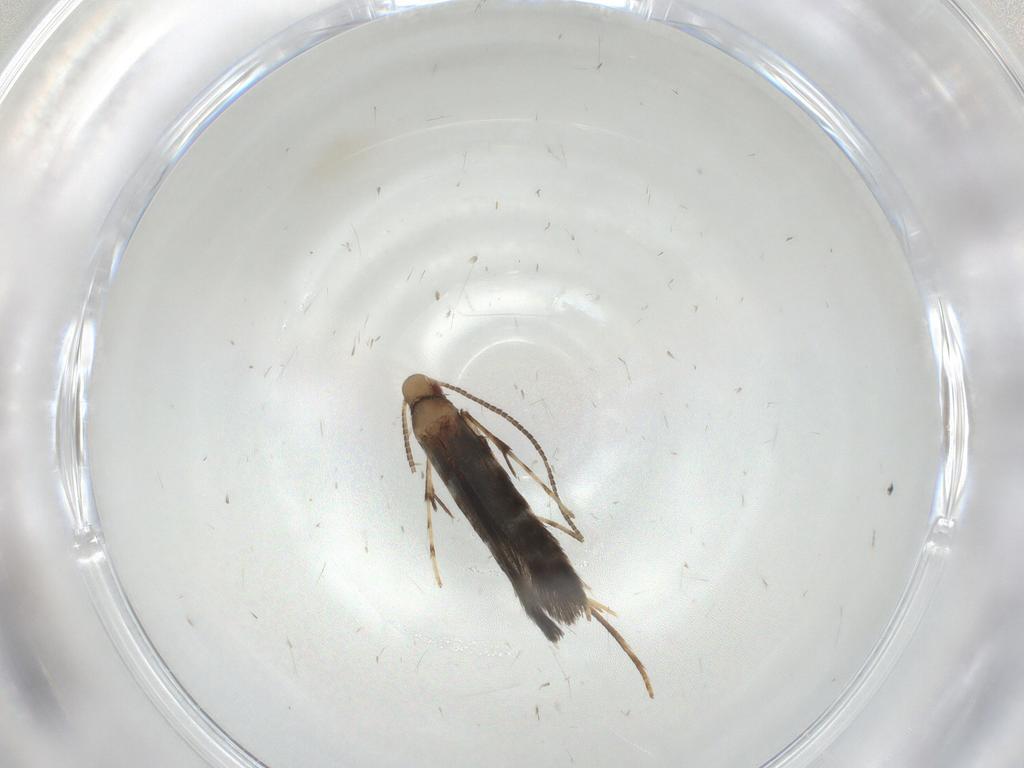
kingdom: Animalia
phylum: Arthropoda
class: Insecta
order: Lepidoptera
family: Gracillariidae
